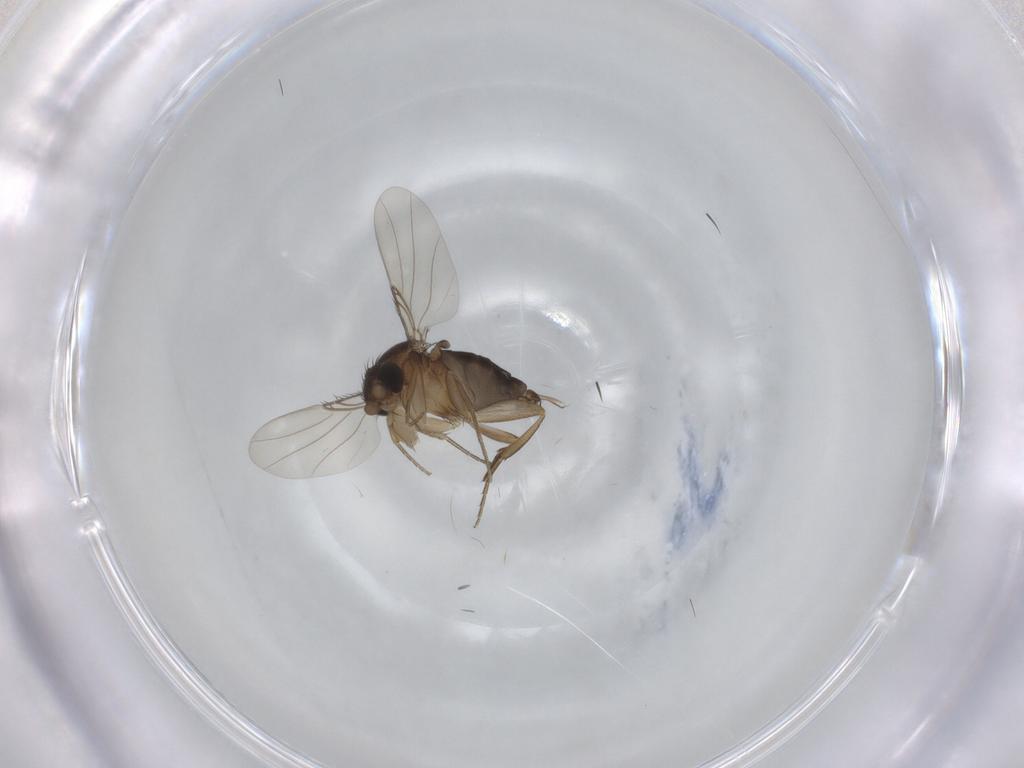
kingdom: Animalia
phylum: Arthropoda
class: Insecta
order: Diptera
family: Phoridae
